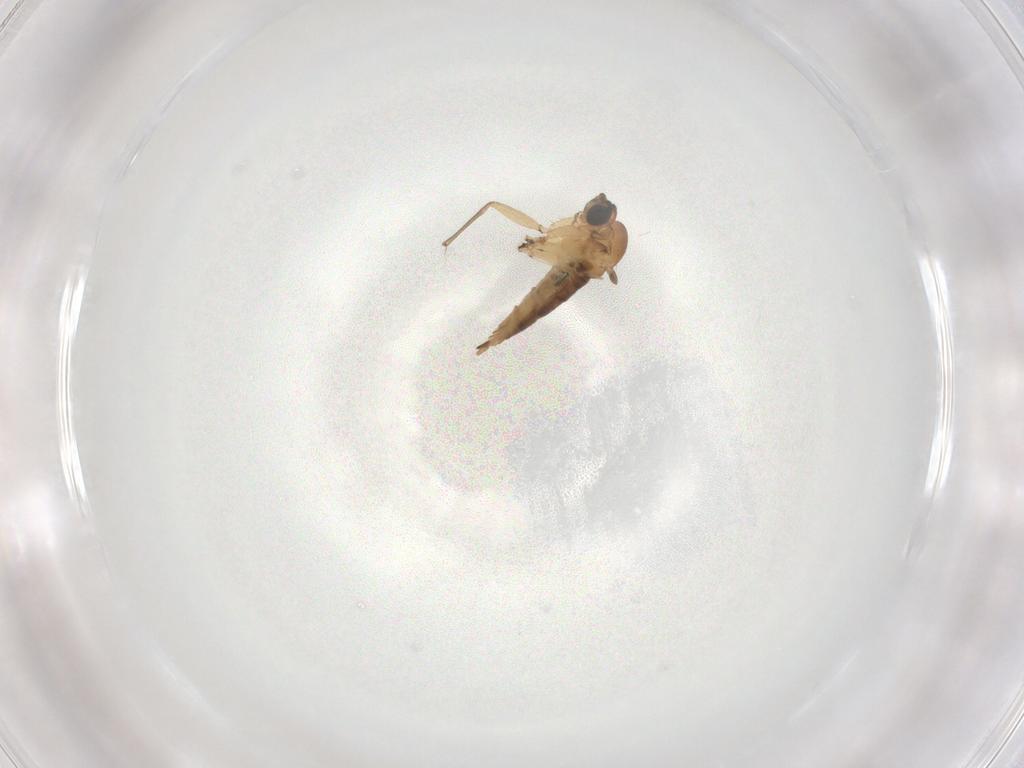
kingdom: Animalia
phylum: Arthropoda
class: Insecta
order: Diptera
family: Sciaridae
